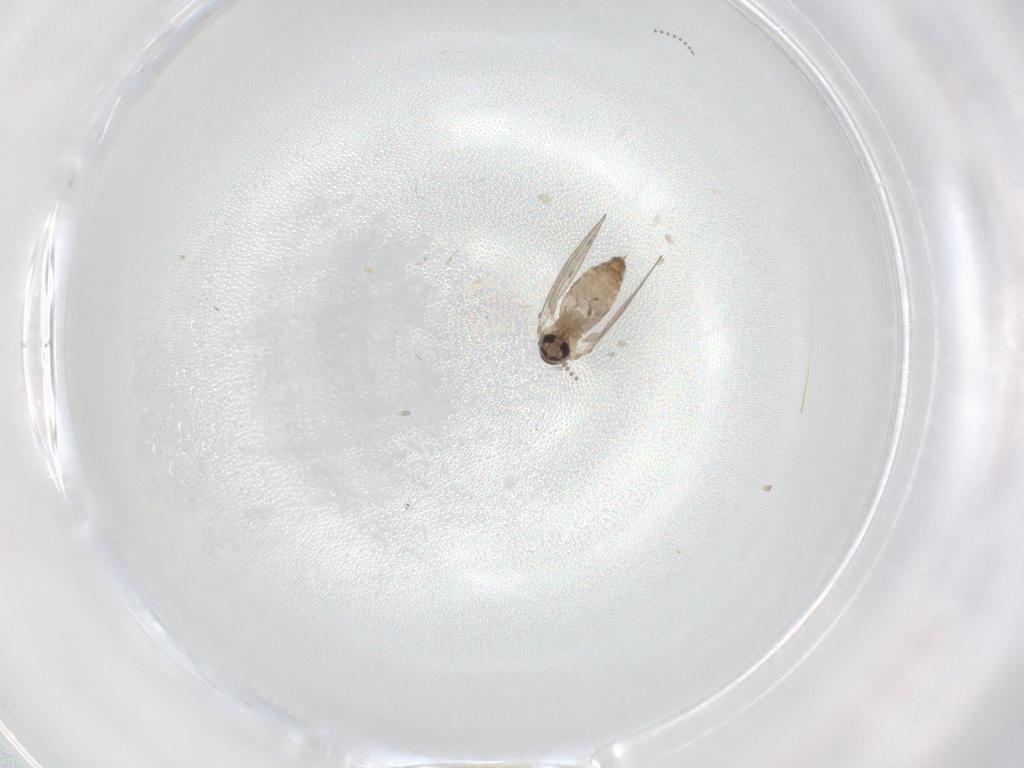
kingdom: Animalia
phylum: Arthropoda
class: Insecta
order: Diptera
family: Psychodidae
